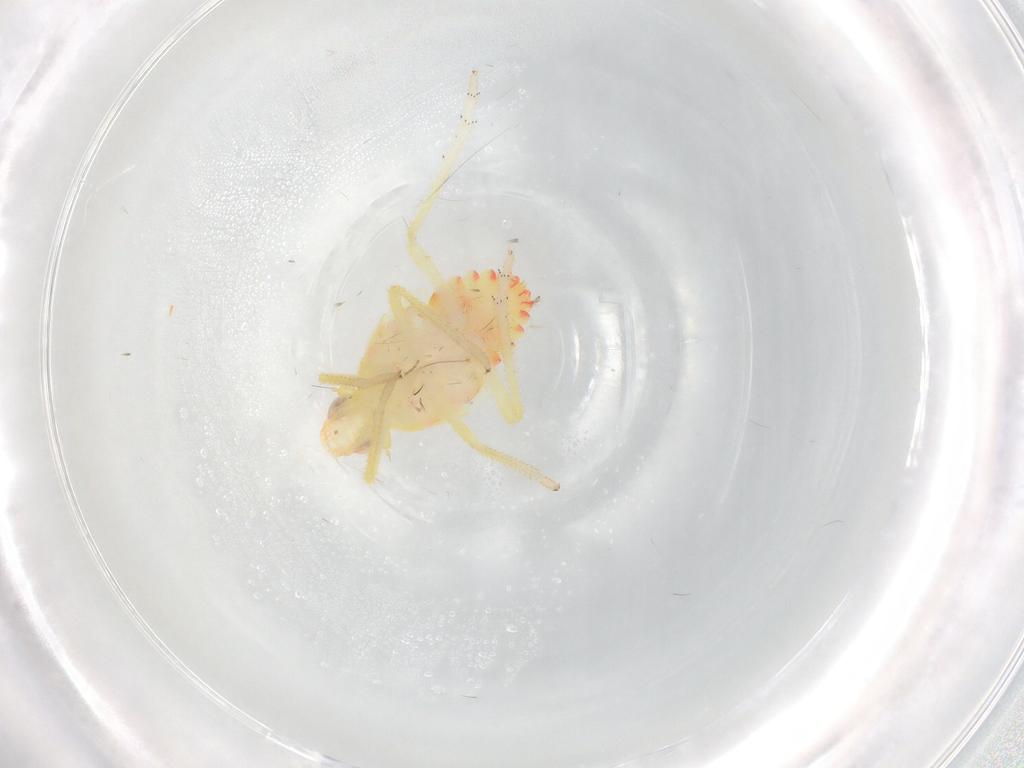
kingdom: Animalia
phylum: Arthropoda
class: Insecta
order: Hemiptera
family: Tropiduchidae
